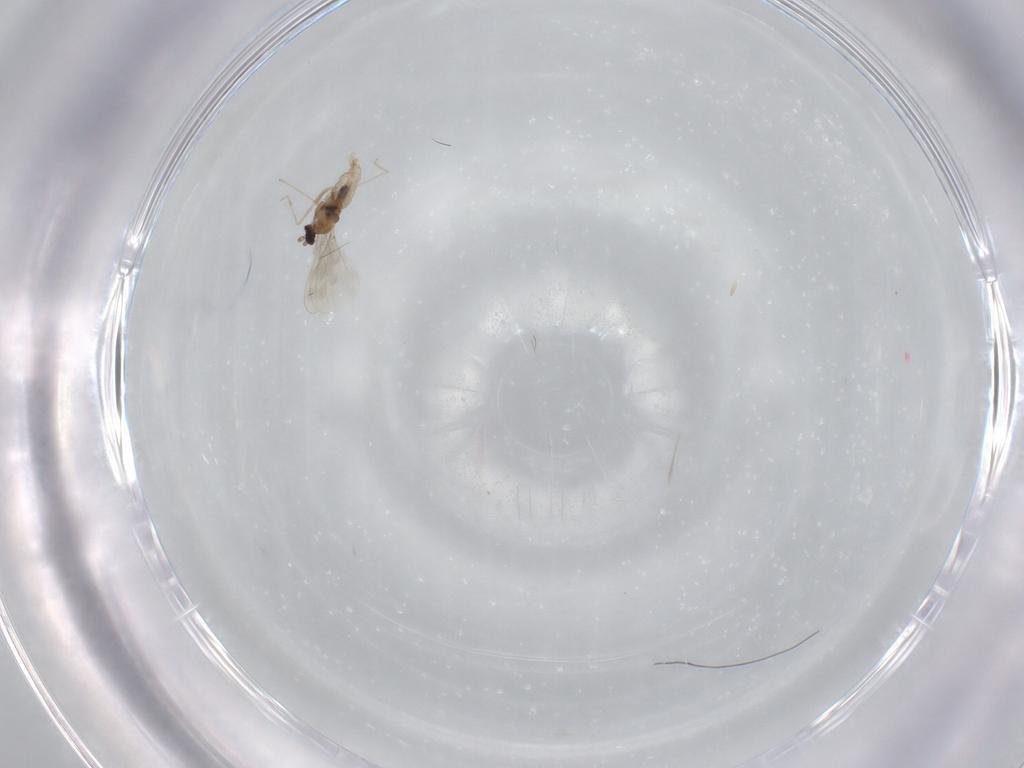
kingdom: Animalia
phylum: Arthropoda
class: Insecta
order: Diptera
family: Cecidomyiidae
